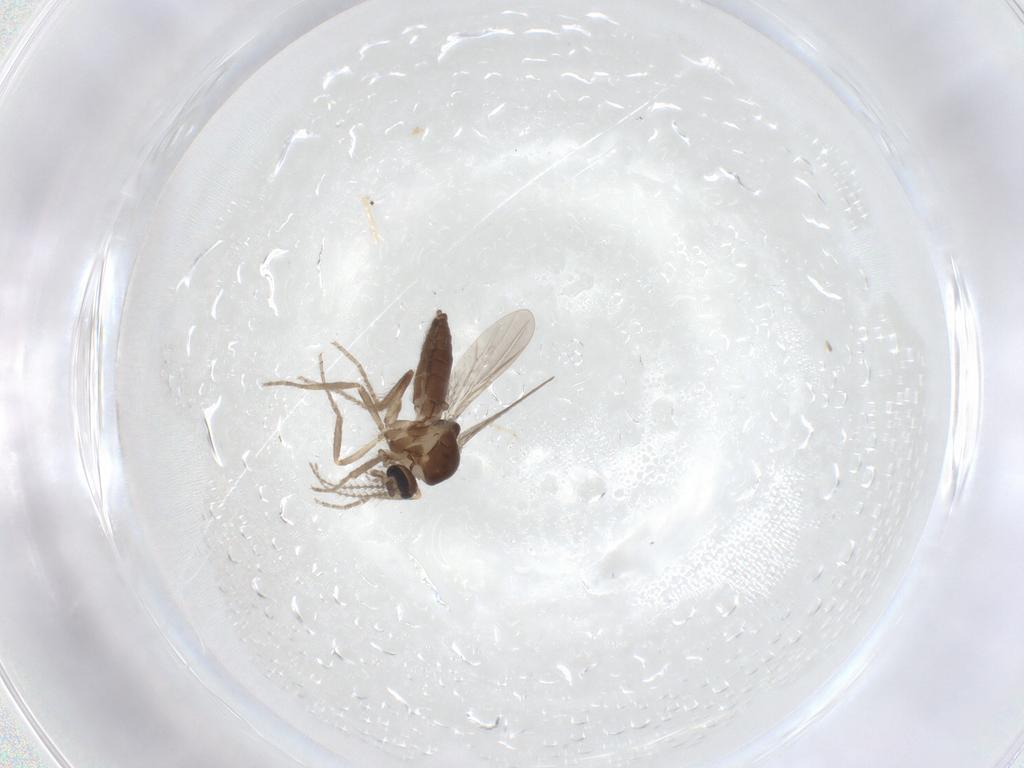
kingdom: Animalia
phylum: Arthropoda
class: Insecta
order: Diptera
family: Ceratopogonidae
